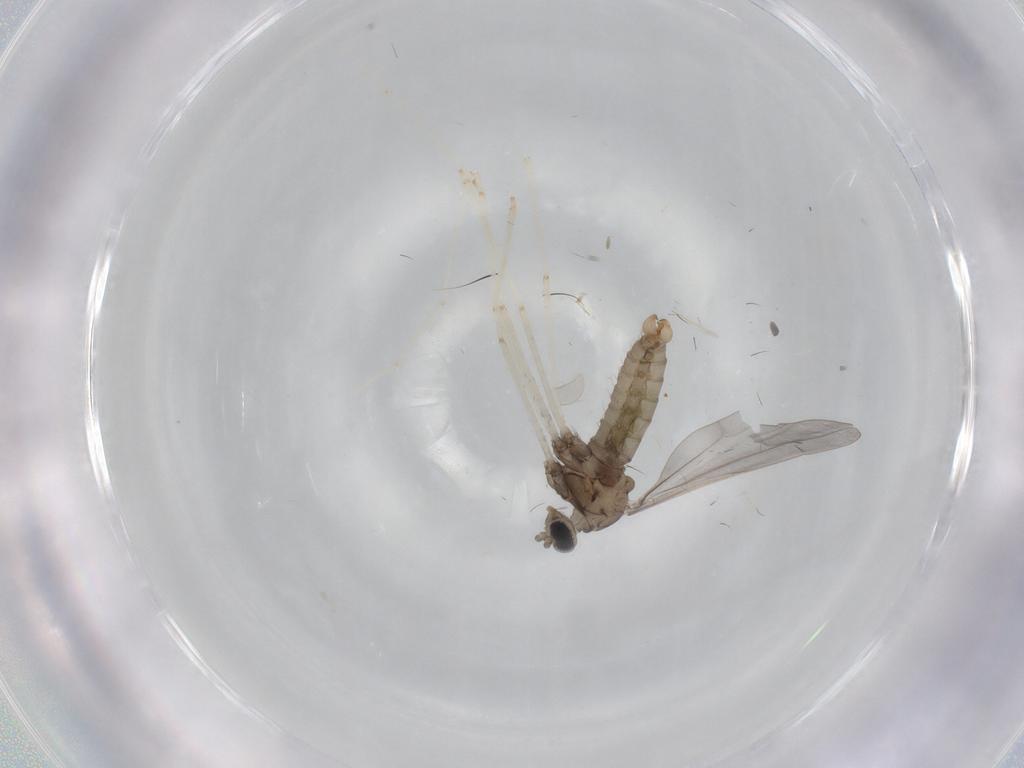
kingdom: Animalia
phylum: Arthropoda
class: Insecta
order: Diptera
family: Cecidomyiidae
